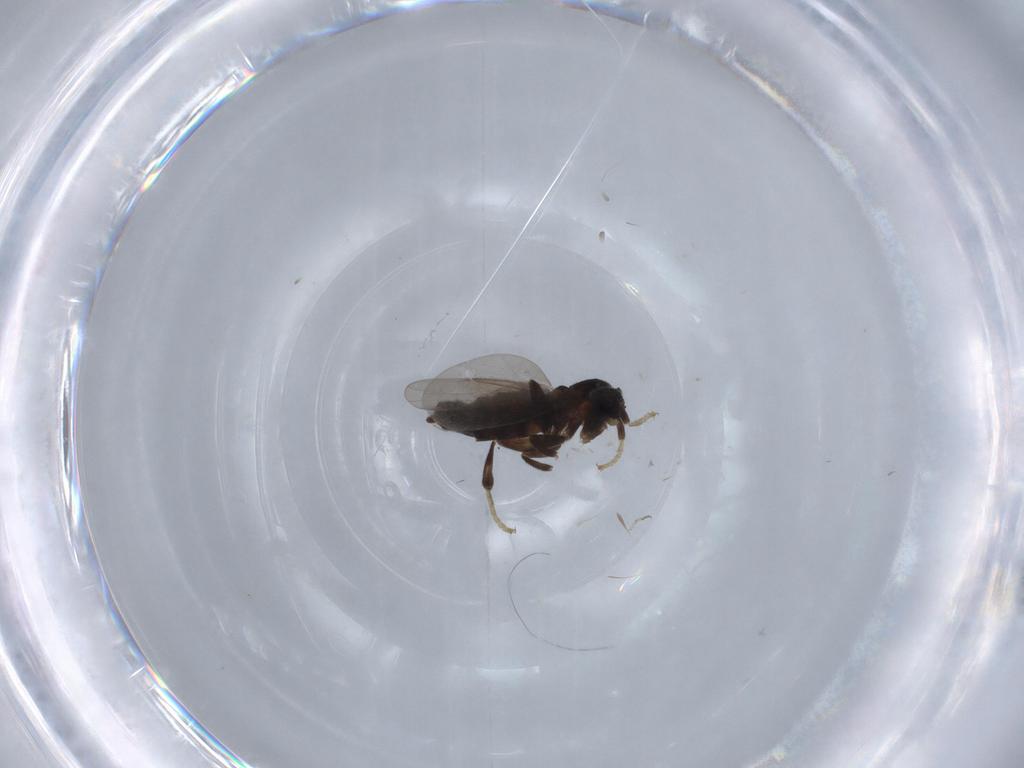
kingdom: Animalia
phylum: Arthropoda
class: Insecta
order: Diptera
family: Scatopsidae
